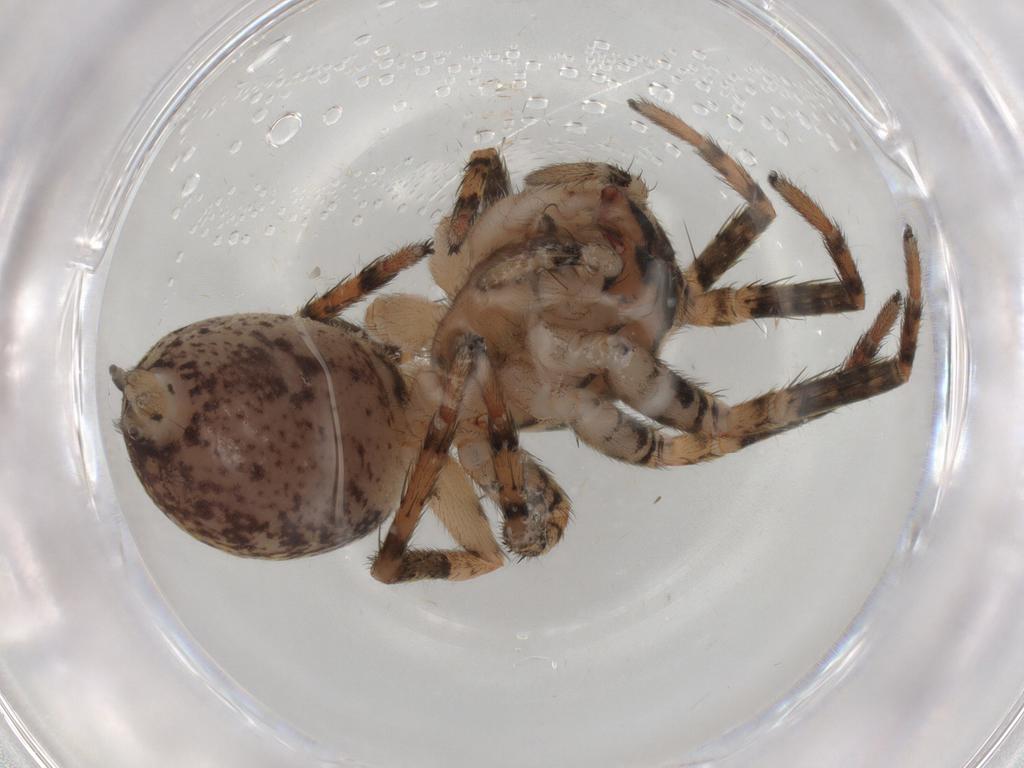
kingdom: Animalia
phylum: Arthropoda
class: Arachnida
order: Araneae
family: Anyphaenidae
